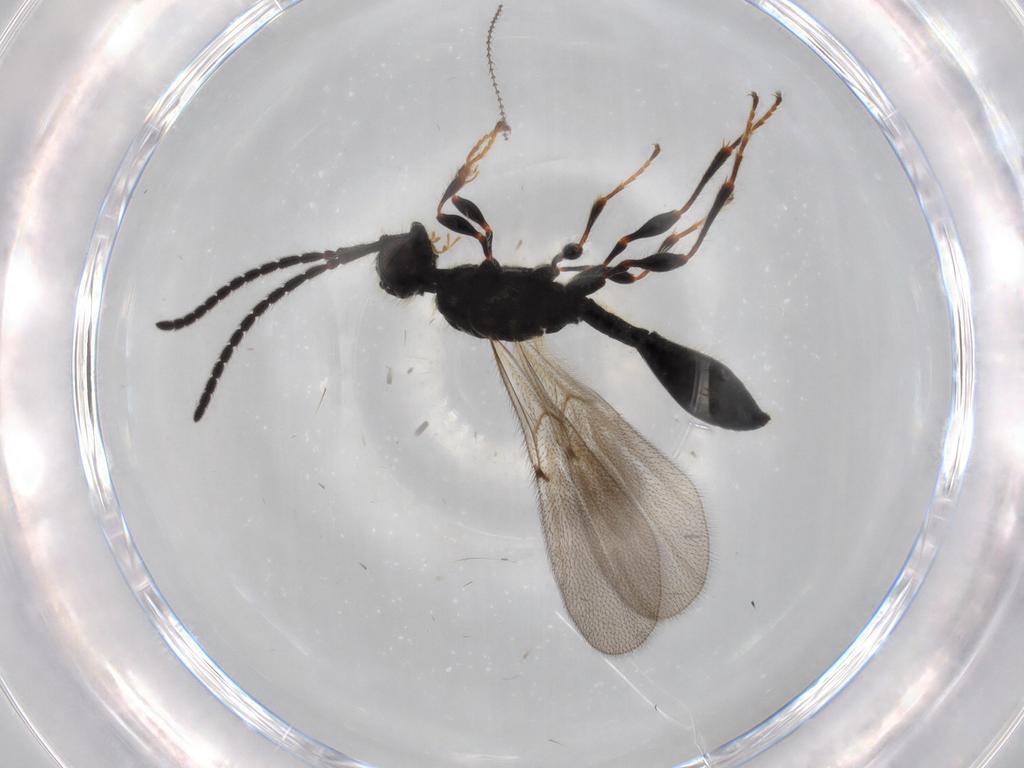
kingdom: Animalia
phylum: Arthropoda
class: Insecta
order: Hymenoptera
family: Diapriidae
